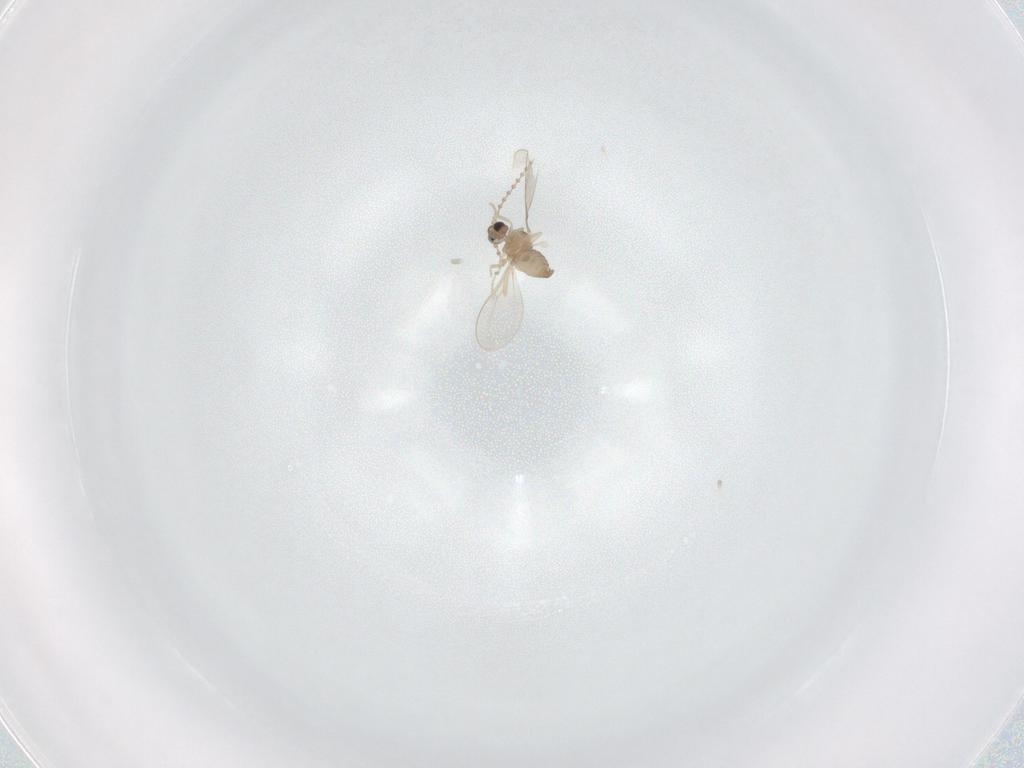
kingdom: Animalia
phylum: Arthropoda
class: Insecta
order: Diptera
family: Cecidomyiidae
